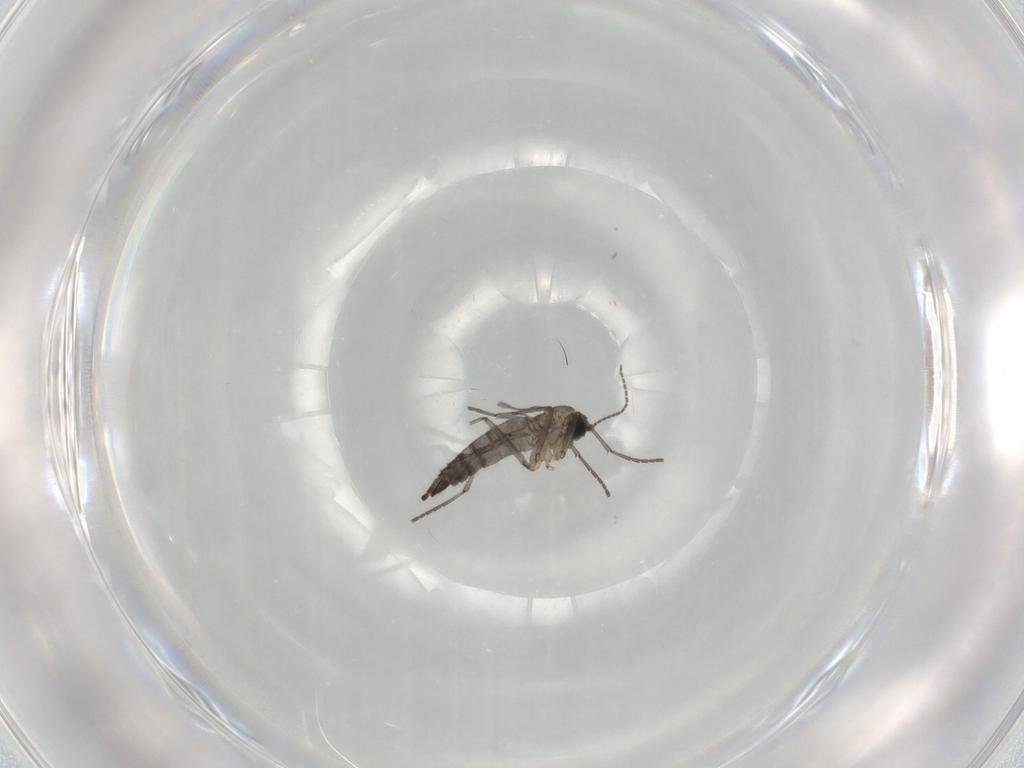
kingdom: Animalia
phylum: Arthropoda
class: Insecta
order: Diptera
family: Sciaridae
